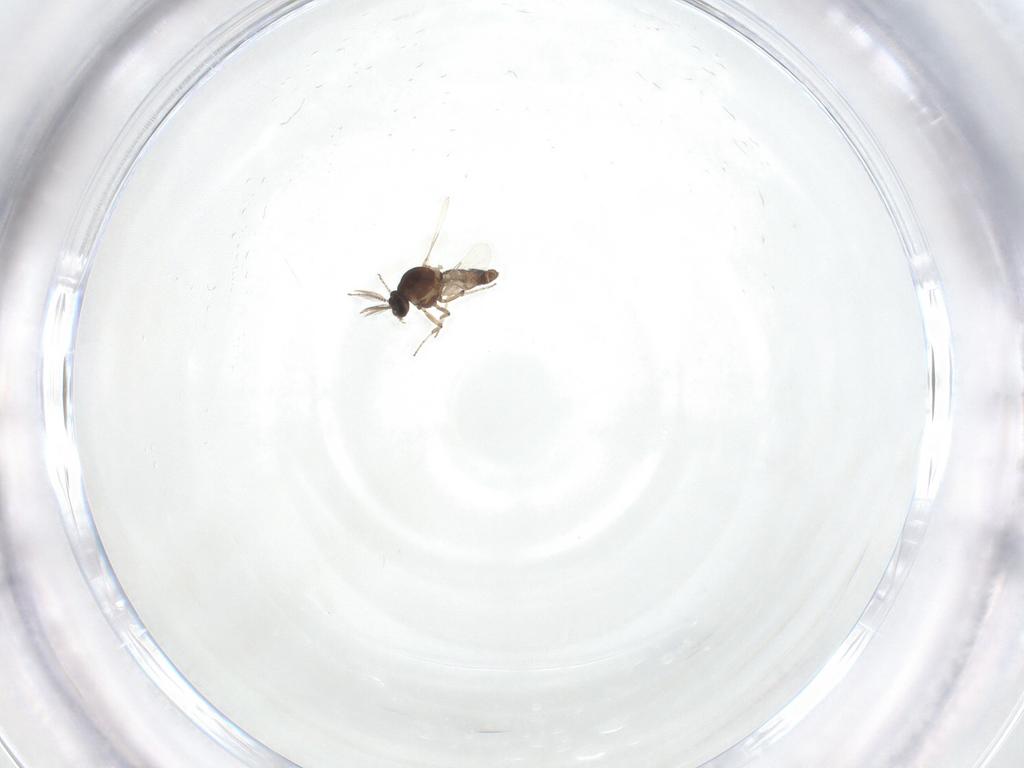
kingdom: Animalia
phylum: Arthropoda
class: Insecta
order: Diptera
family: Ceratopogonidae
